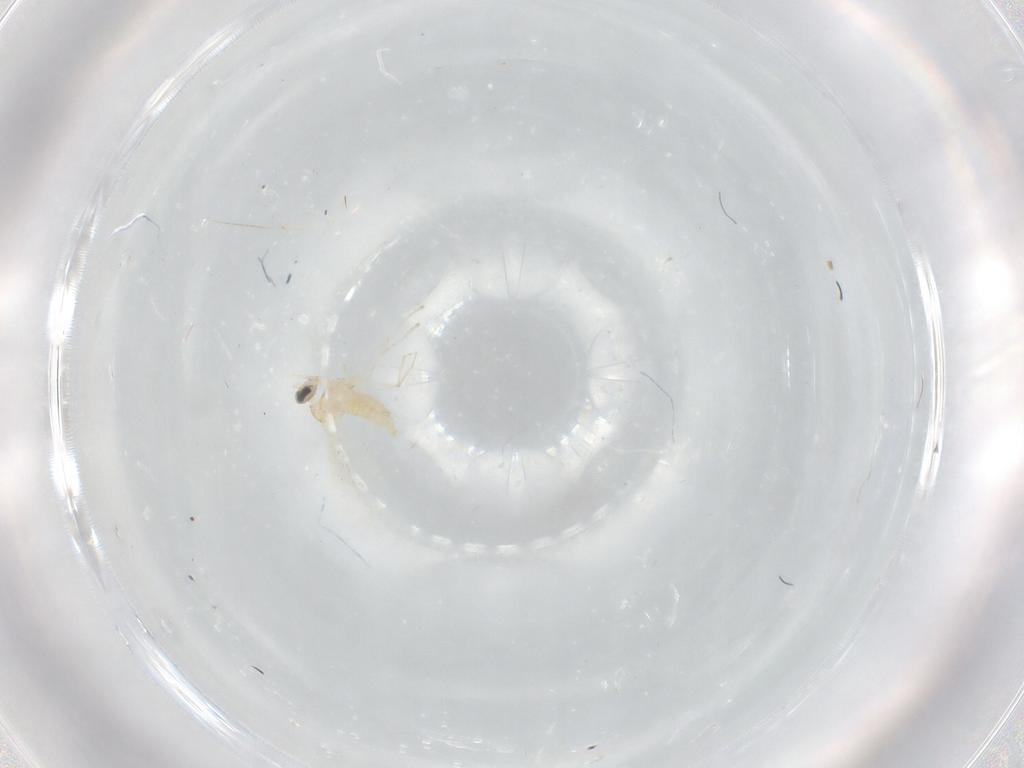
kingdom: Animalia
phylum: Arthropoda
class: Insecta
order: Diptera
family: Cecidomyiidae
